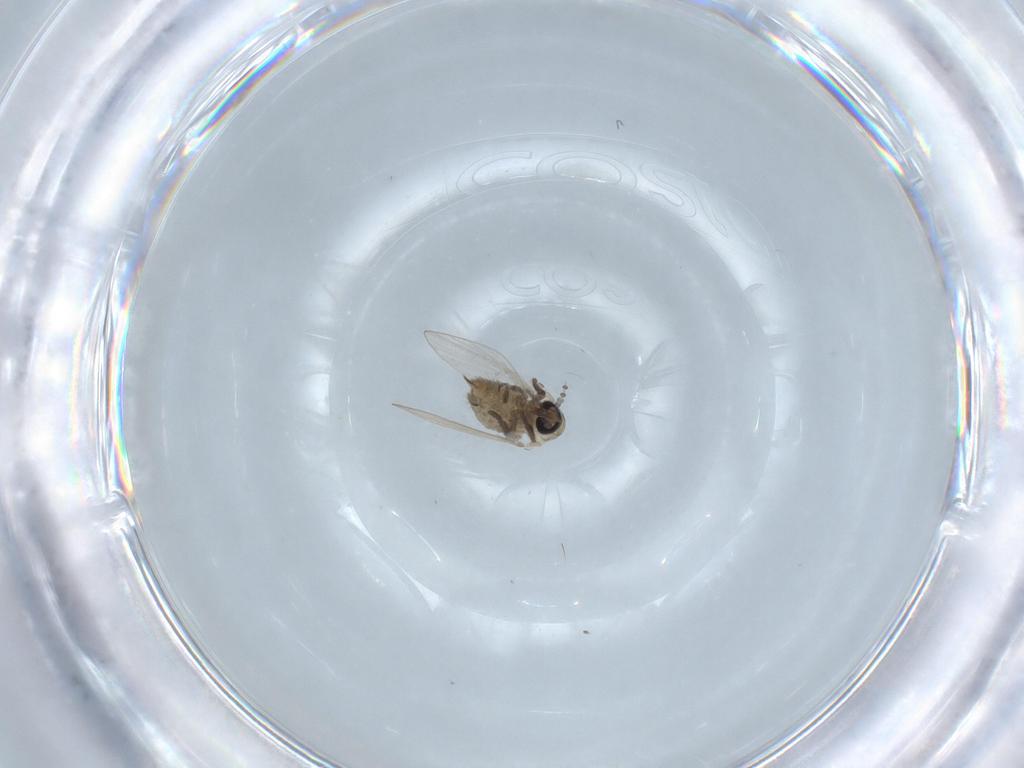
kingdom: Animalia
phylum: Arthropoda
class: Insecta
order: Diptera
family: Psychodidae
